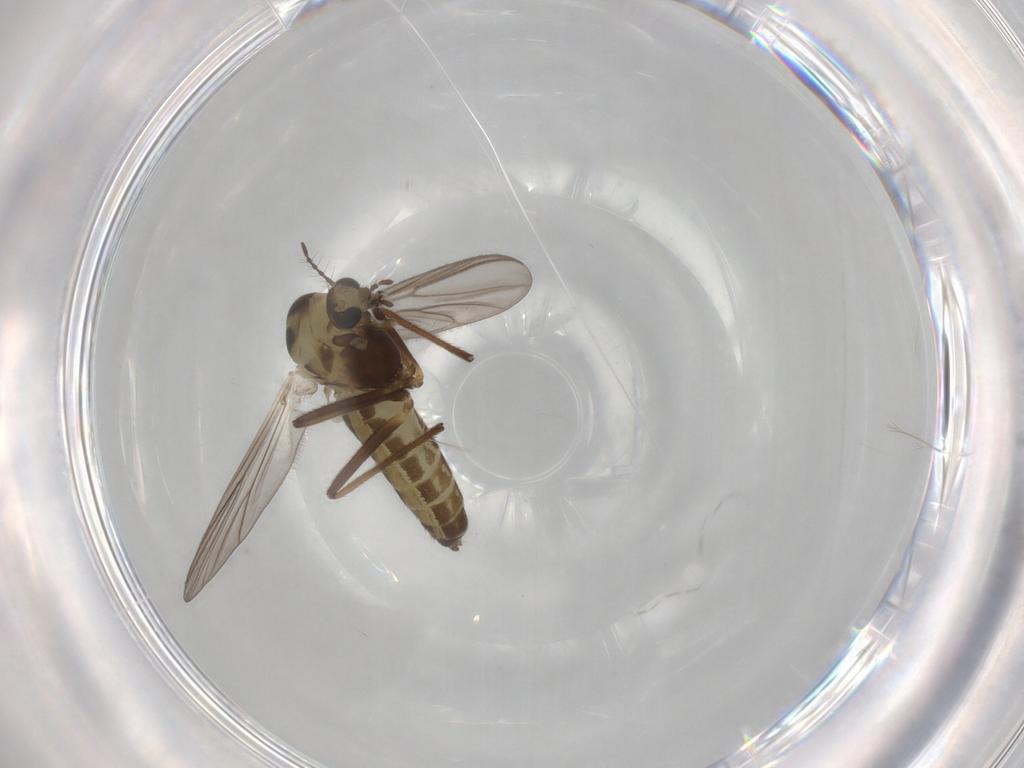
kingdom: Animalia
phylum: Arthropoda
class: Insecta
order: Diptera
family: Chironomidae
